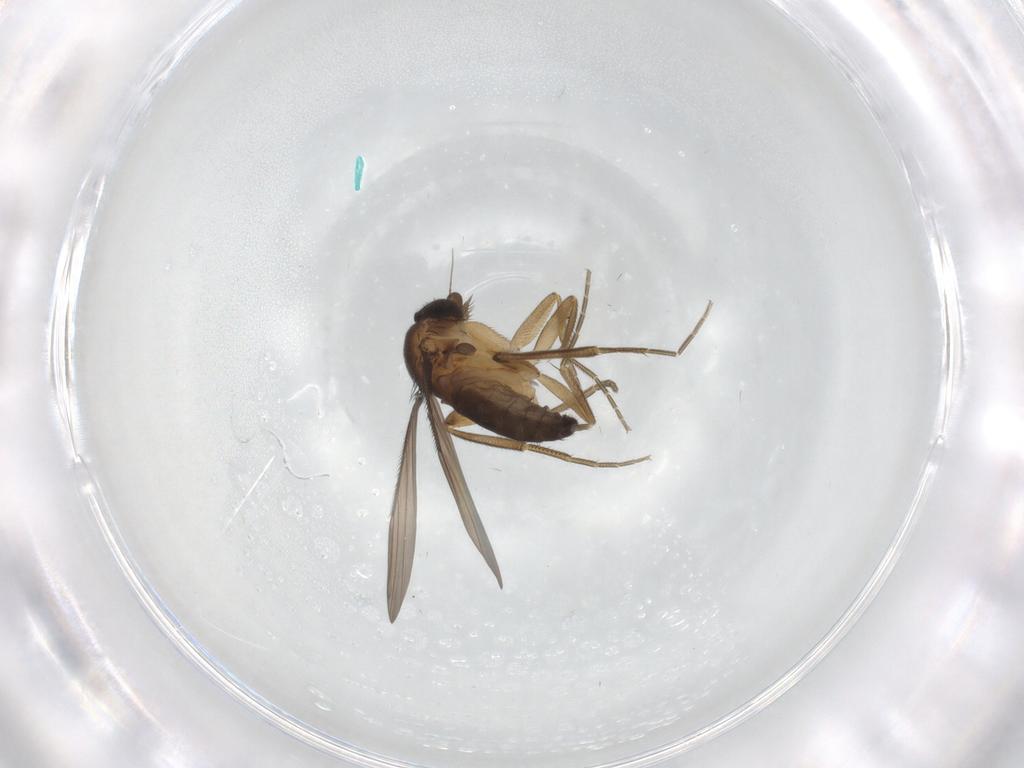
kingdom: Animalia
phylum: Arthropoda
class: Insecta
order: Diptera
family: Phoridae
